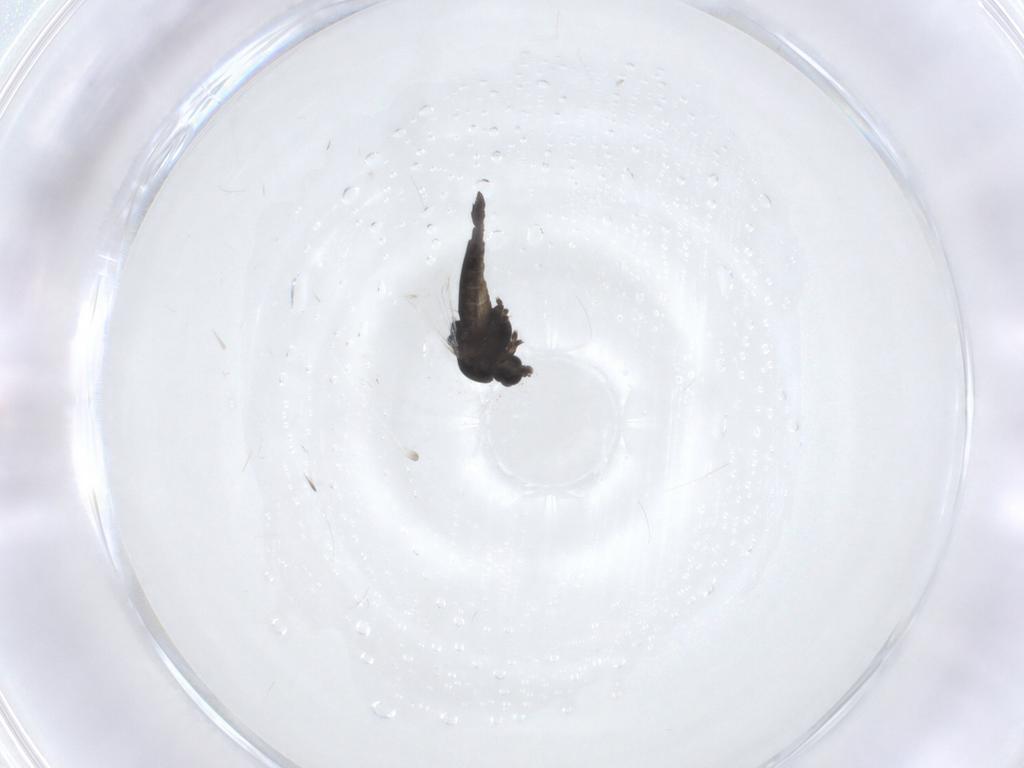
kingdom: Animalia
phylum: Arthropoda
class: Insecta
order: Diptera
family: Chironomidae
